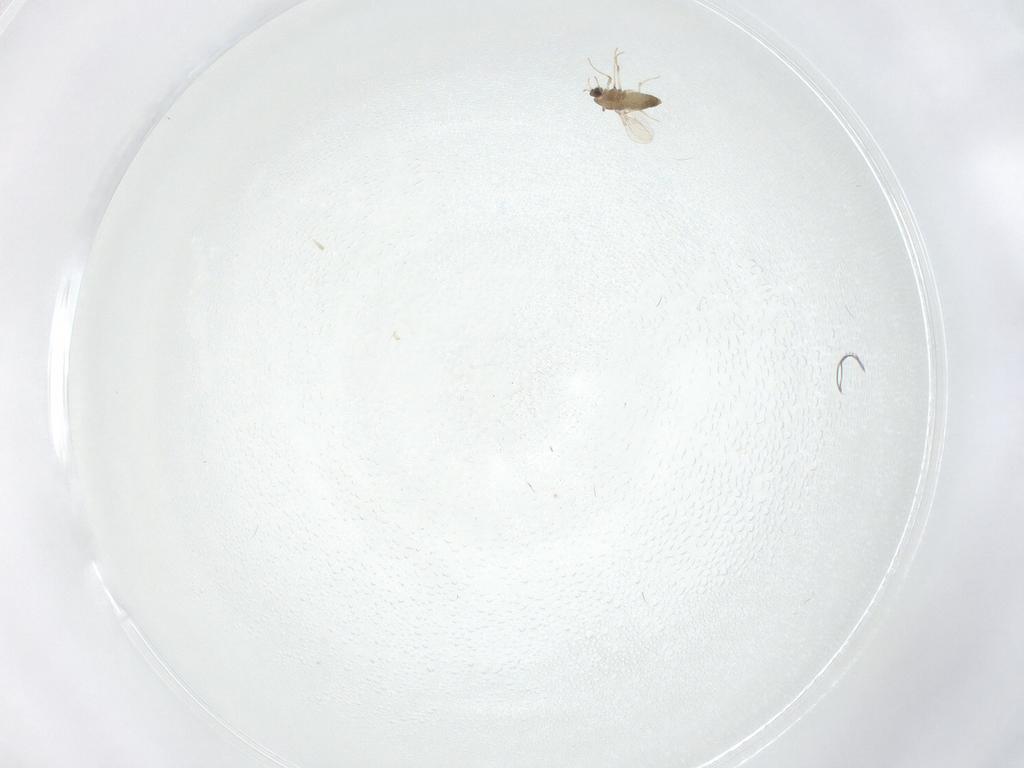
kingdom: Animalia
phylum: Arthropoda
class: Insecta
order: Diptera
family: Chironomidae
